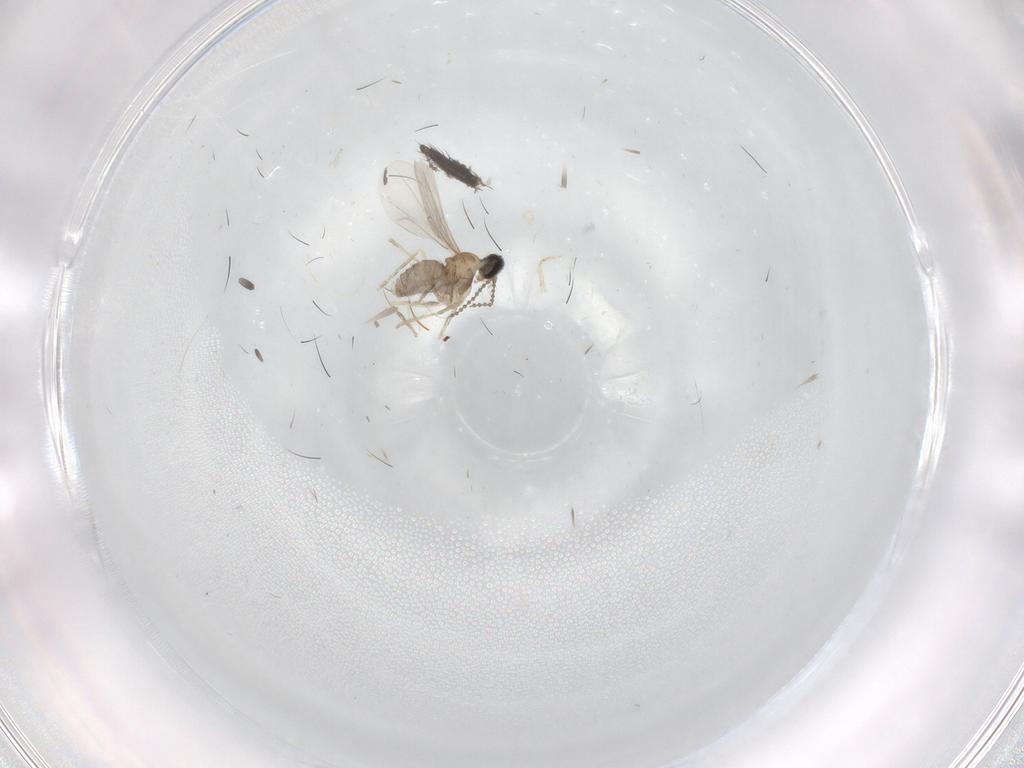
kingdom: Animalia
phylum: Arthropoda
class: Insecta
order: Diptera
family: Cecidomyiidae
